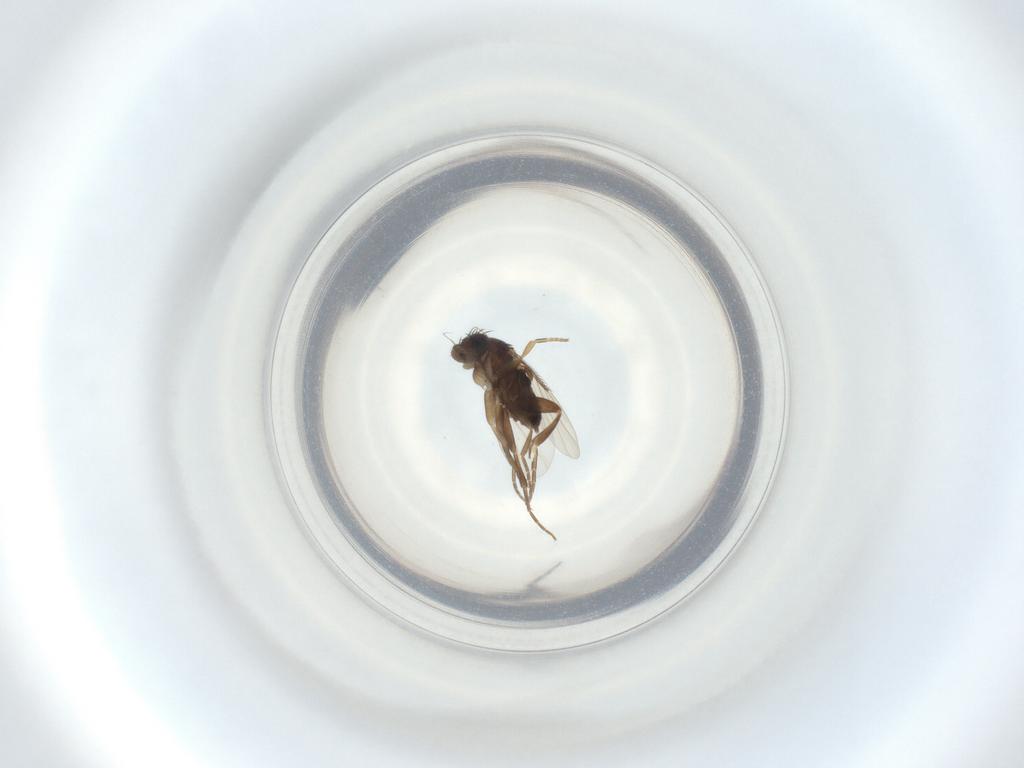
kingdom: Animalia
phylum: Arthropoda
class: Insecta
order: Diptera
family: Phoridae
